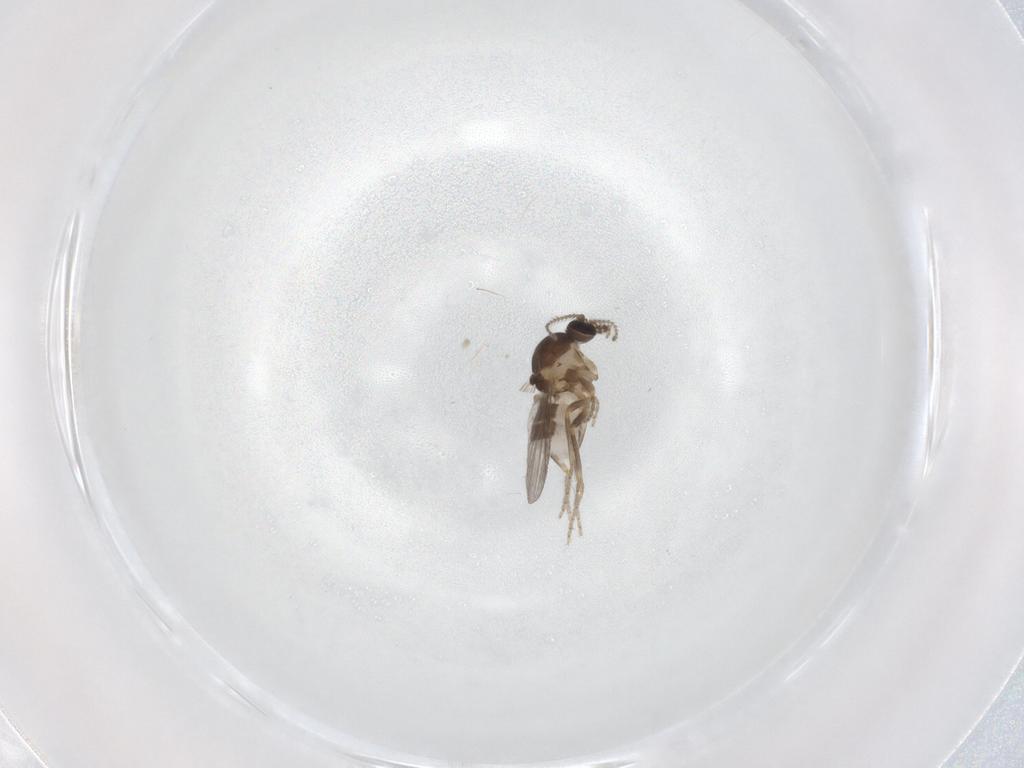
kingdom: Animalia
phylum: Arthropoda
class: Insecta
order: Diptera
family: Ceratopogonidae
